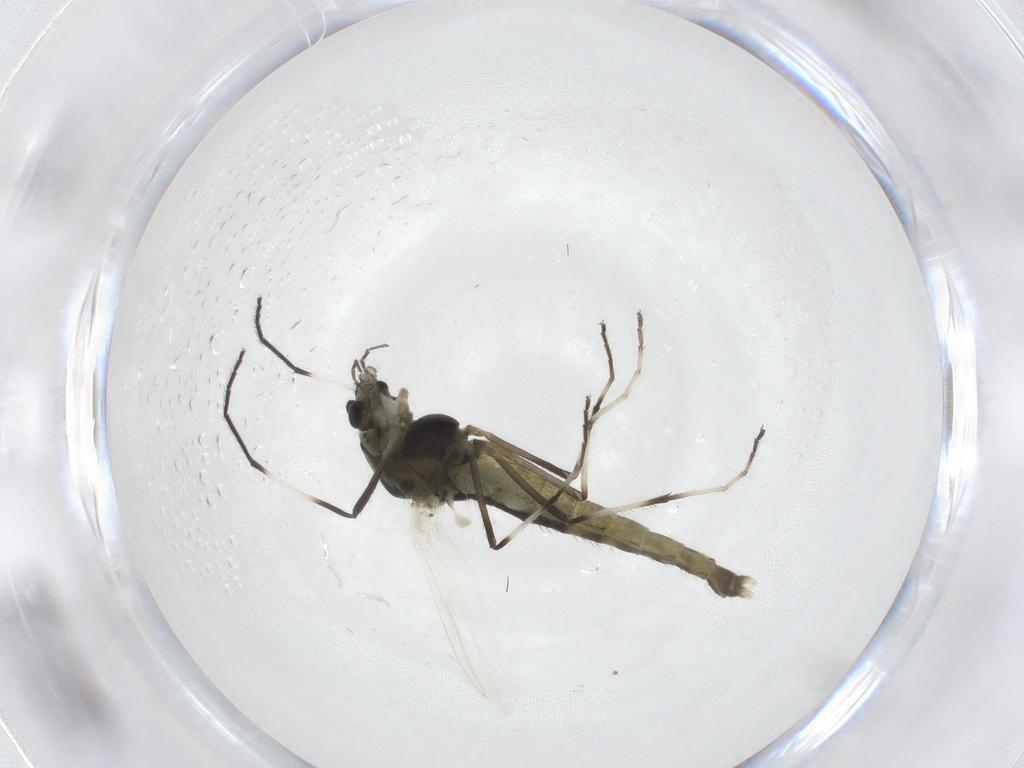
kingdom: Animalia
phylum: Arthropoda
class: Insecta
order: Diptera
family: Chironomidae
